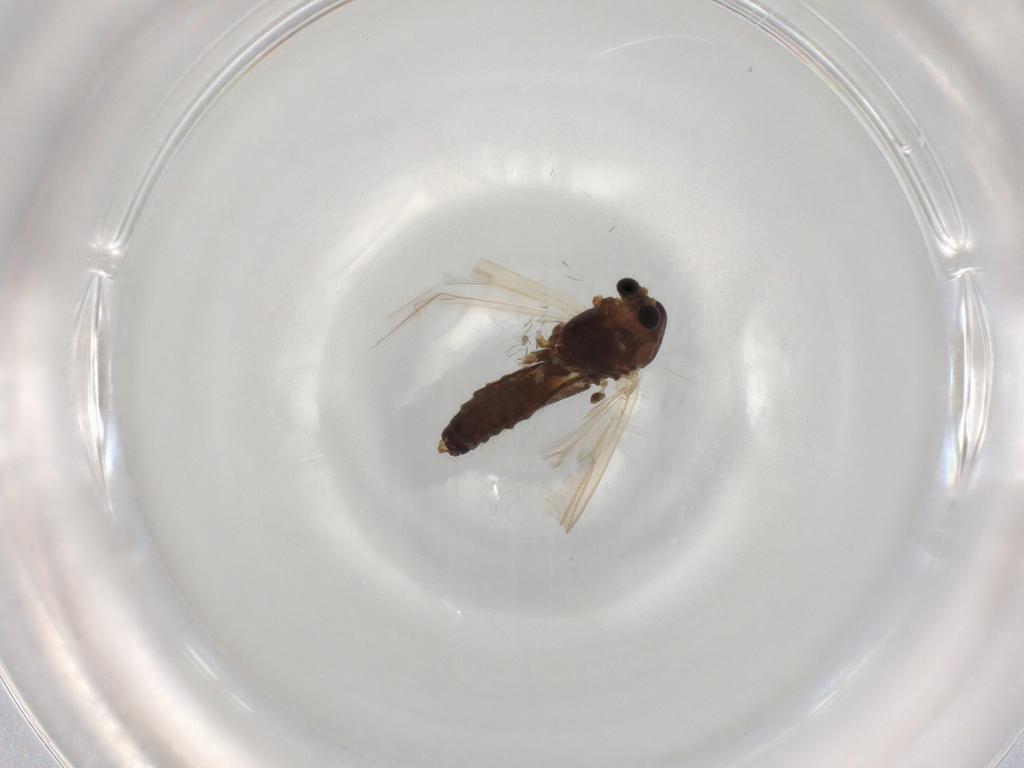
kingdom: Animalia
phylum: Arthropoda
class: Insecta
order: Diptera
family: Chironomidae
